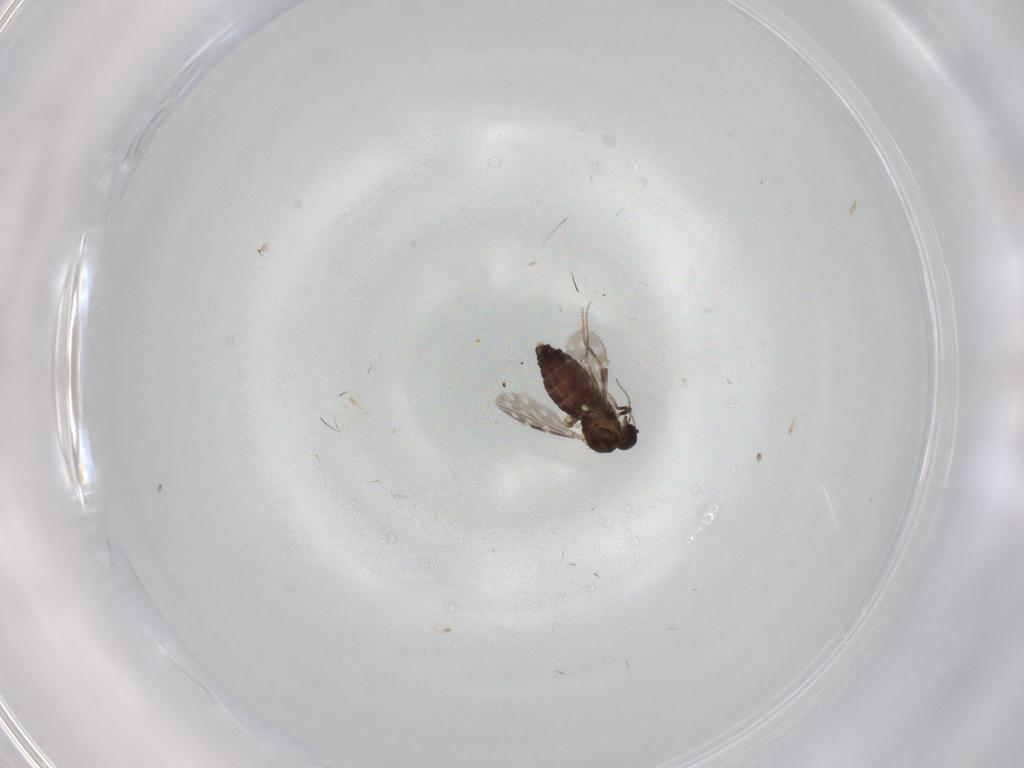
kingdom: Animalia
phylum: Arthropoda
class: Insecta
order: Diptera
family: Ceratopogonidae
